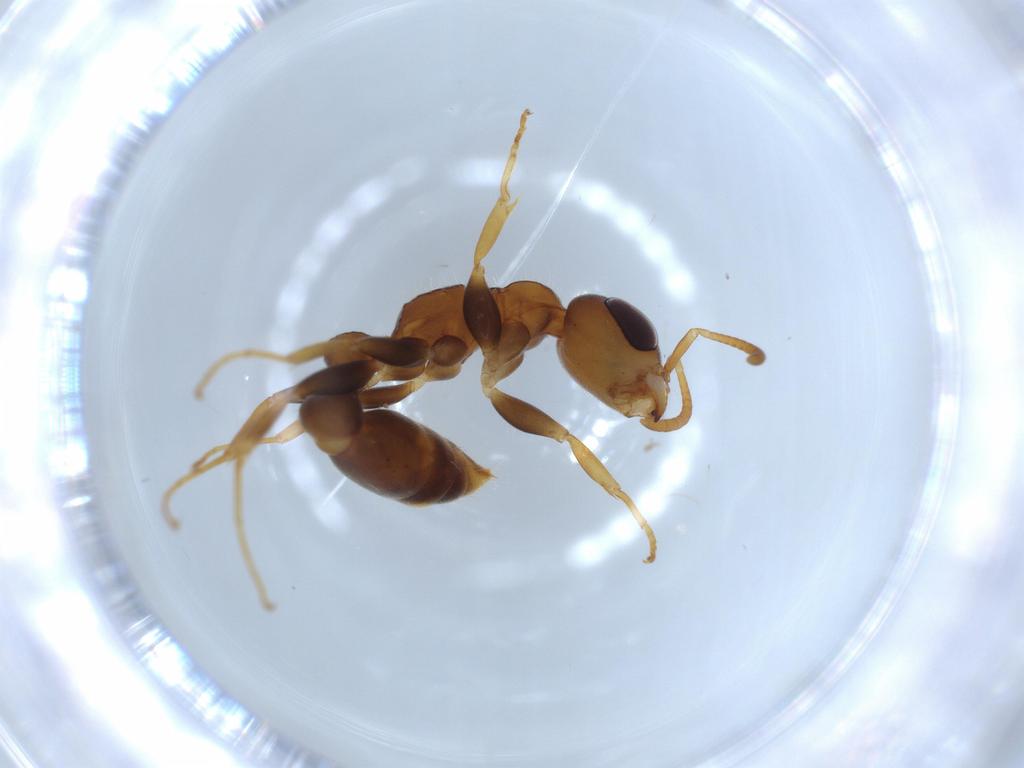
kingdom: Animalia
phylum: Arthropoda
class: Insecta
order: Hymenoptera
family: Formicidae
